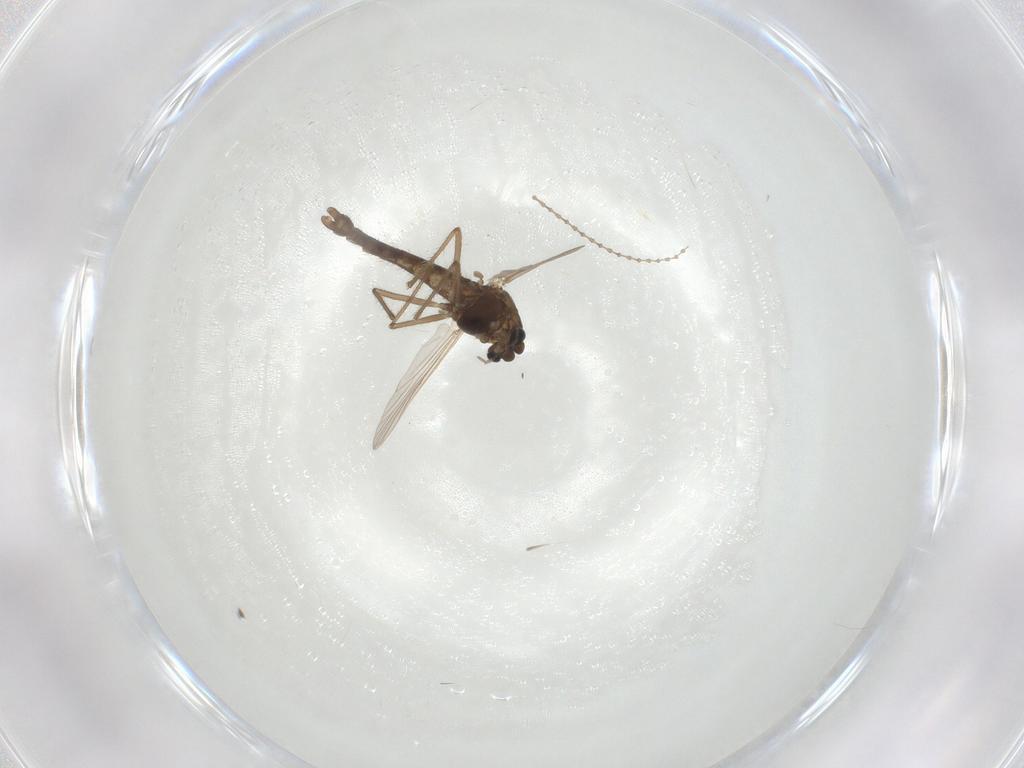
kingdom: Animalia
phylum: Arthropoda
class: Insecta
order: Diptera
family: Chironomidae
